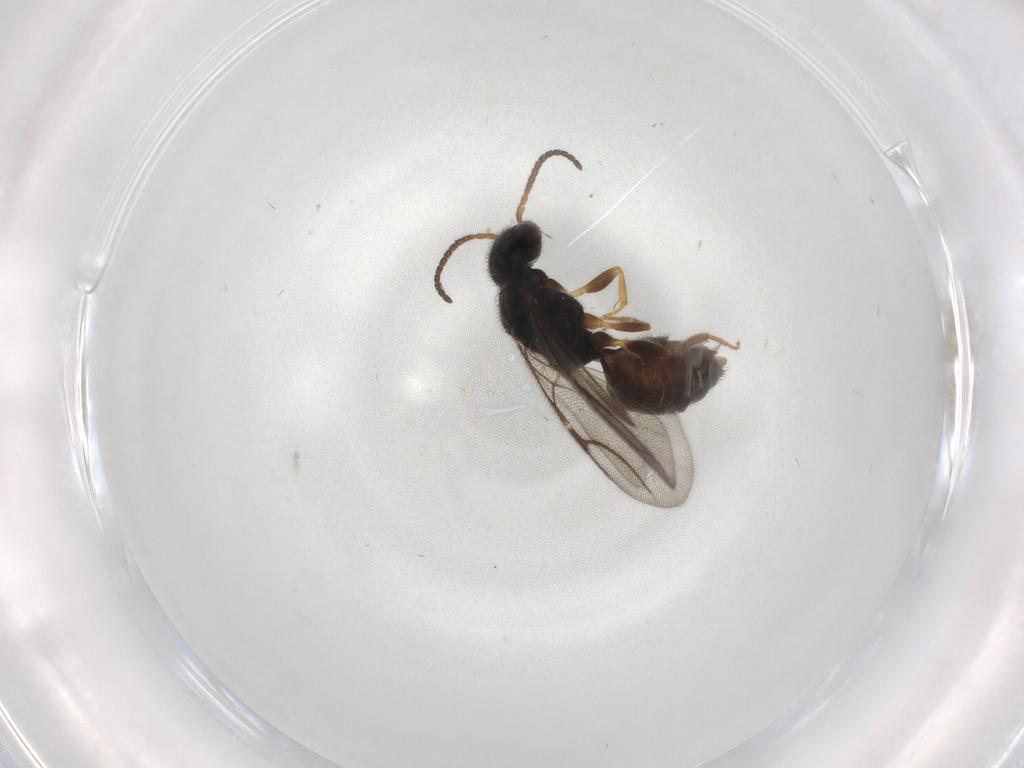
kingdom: Animalia
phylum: Arthropoda
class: Insecta
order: Hymenoptera
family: Bethylidae
